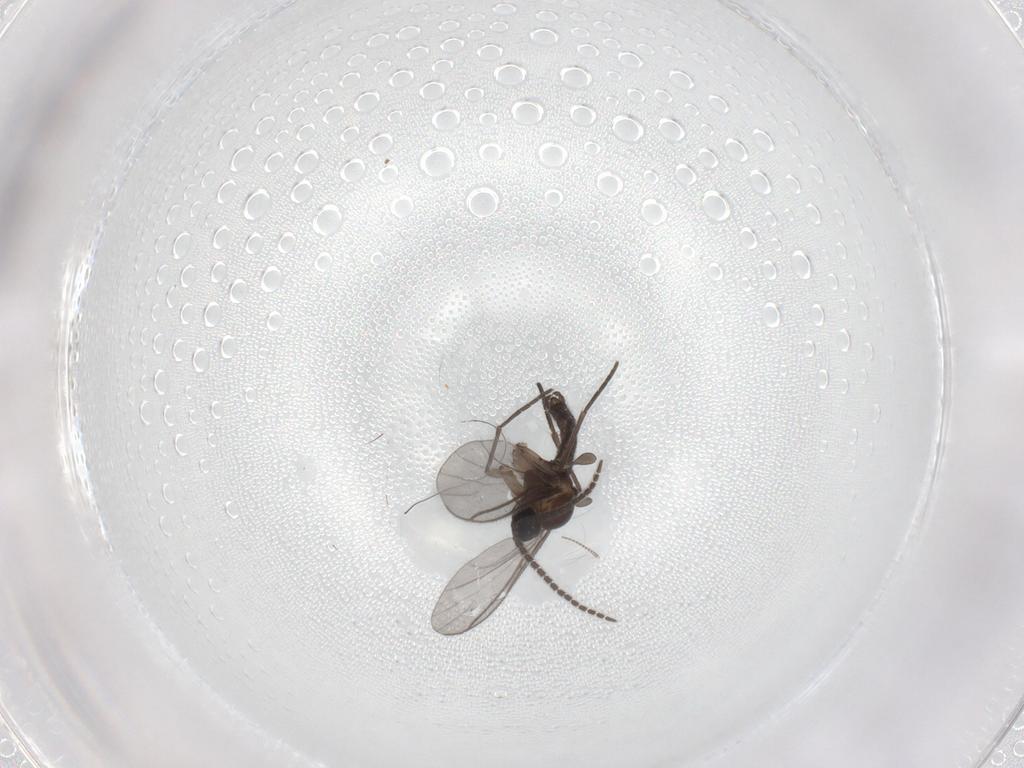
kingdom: Animalia
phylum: Arthropoda
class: Insecta
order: Diptera
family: Chironomidae
